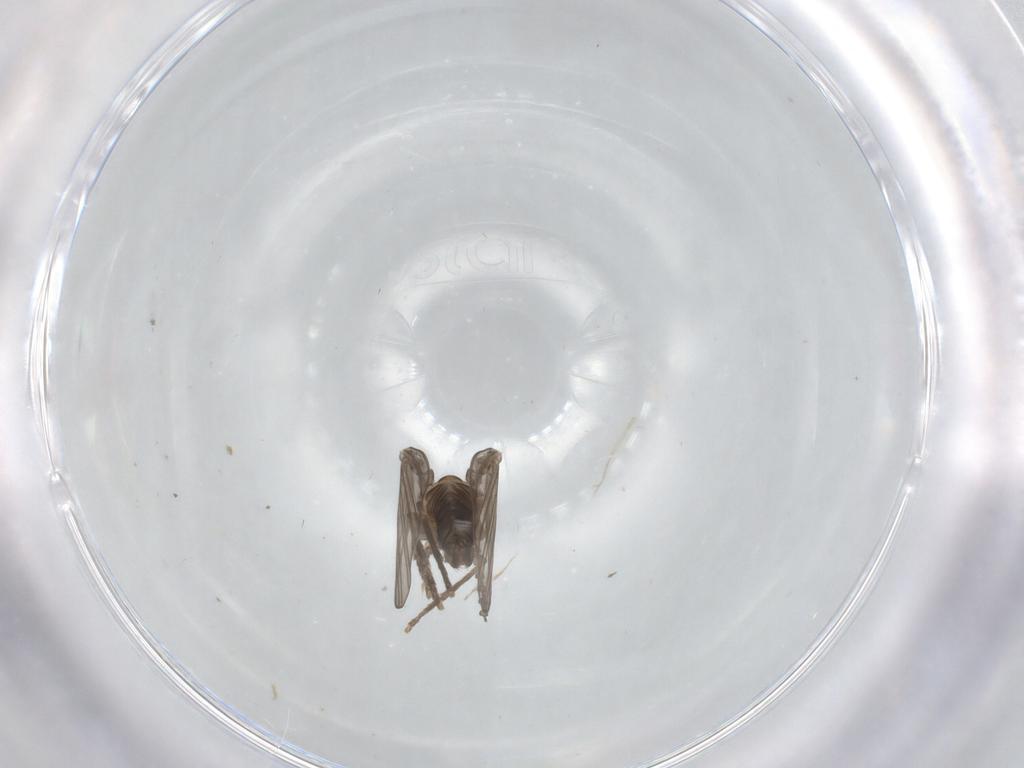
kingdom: Animalia
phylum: Arthropoda
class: Insecta
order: Diptera
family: Psychodidae
